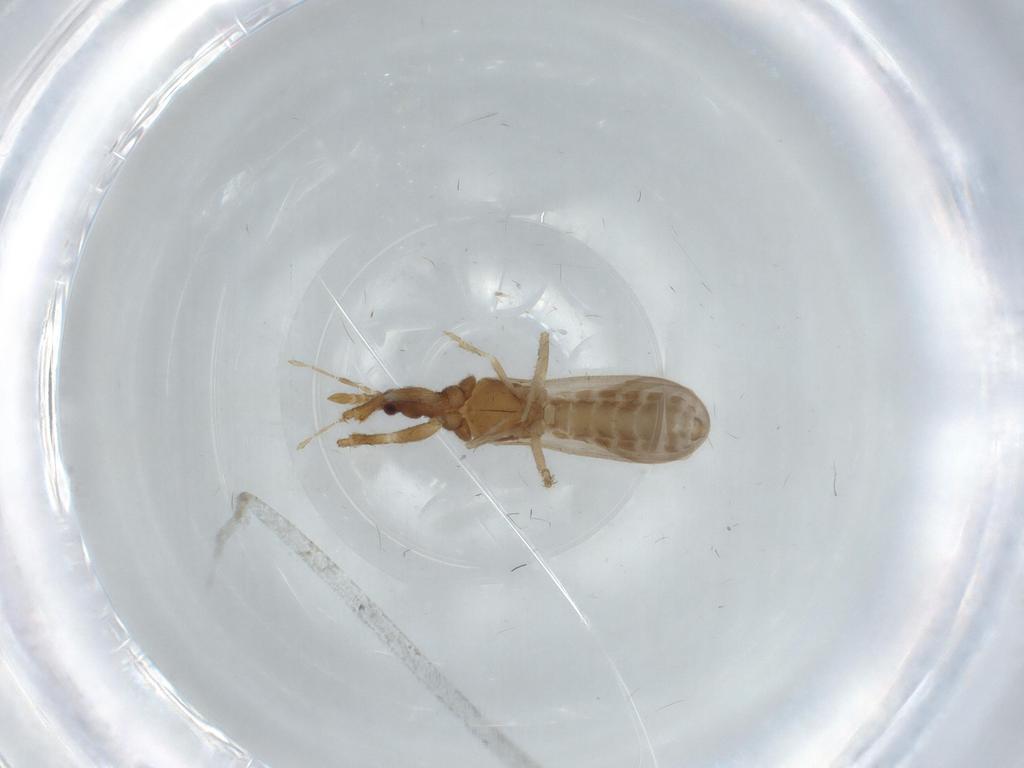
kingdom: Animalia
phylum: Arthropoda
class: Insecta
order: Hemiptera
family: Enicocephalidae
